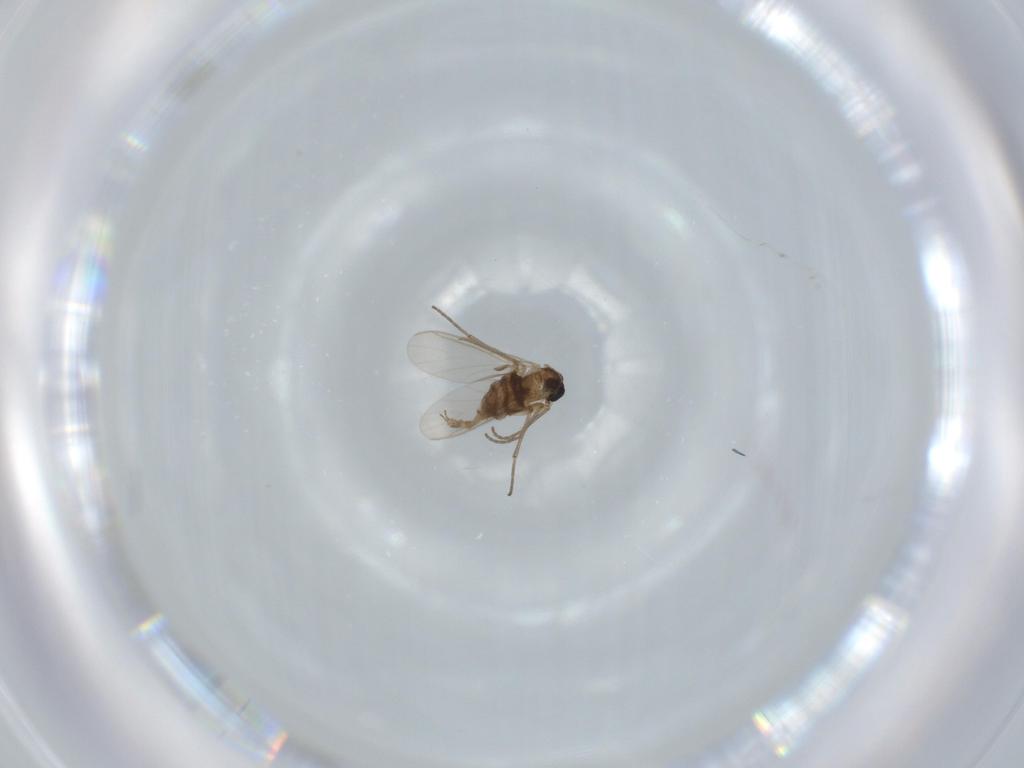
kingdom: Animalia
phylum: Arthropoda
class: Insecta
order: Diptera
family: Sciaridae
